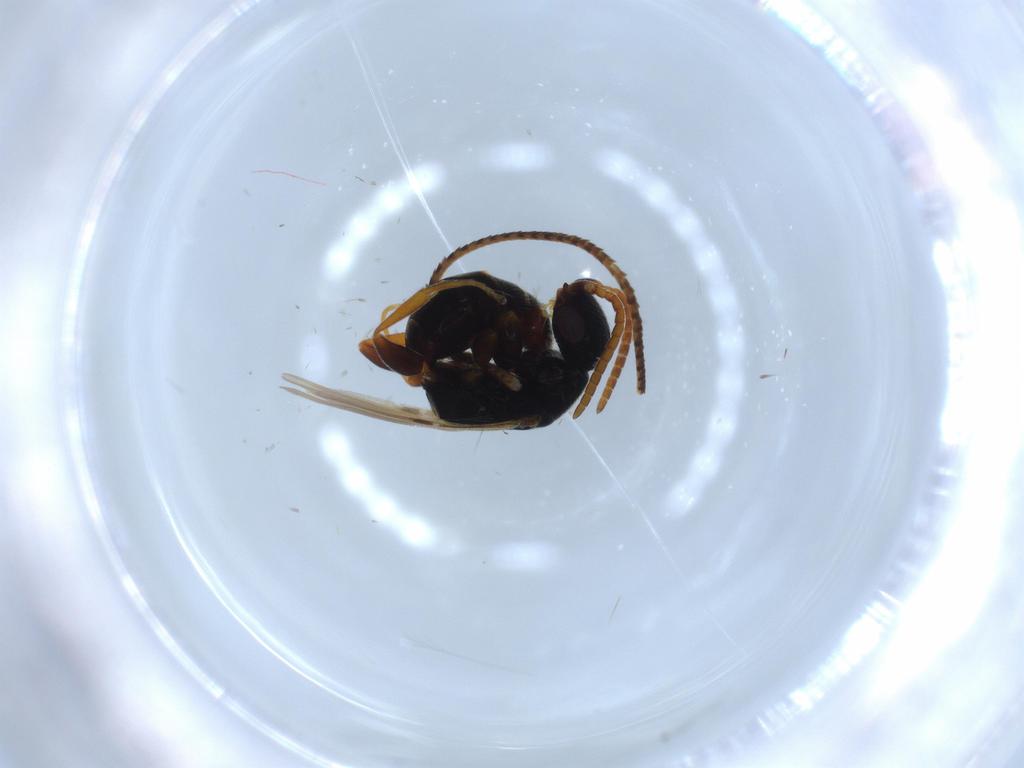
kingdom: Animalia
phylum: Arthropoda
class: Insecta
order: Hymenoptera
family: Bethylidae
